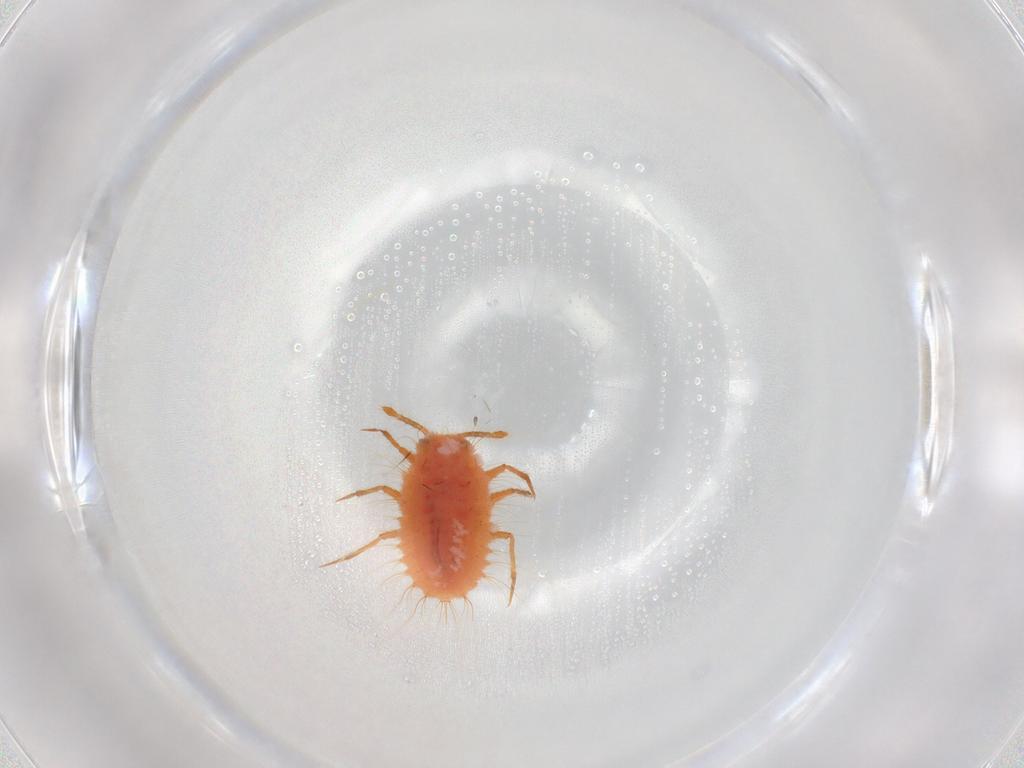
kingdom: Animalia
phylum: Arthropoda
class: Insecta
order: Hemiptera
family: Coccoidea_incertae_sedis
